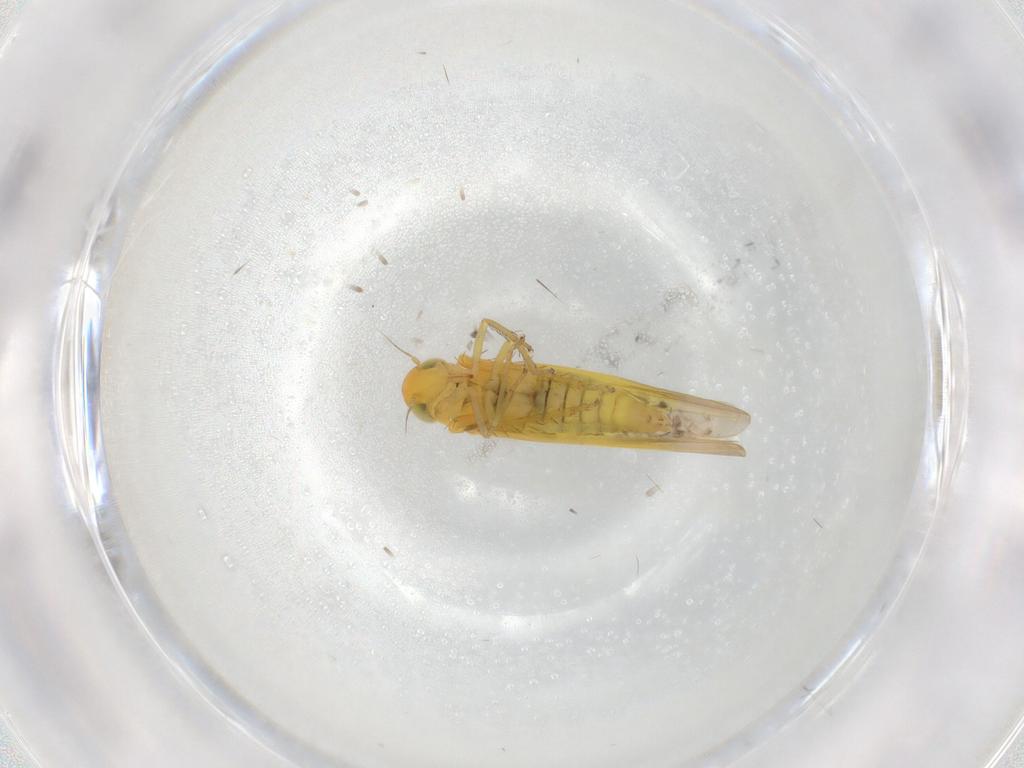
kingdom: Animalia
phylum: Arthropoda
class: Insecta
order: Hemiptera
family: Cicadellidae
